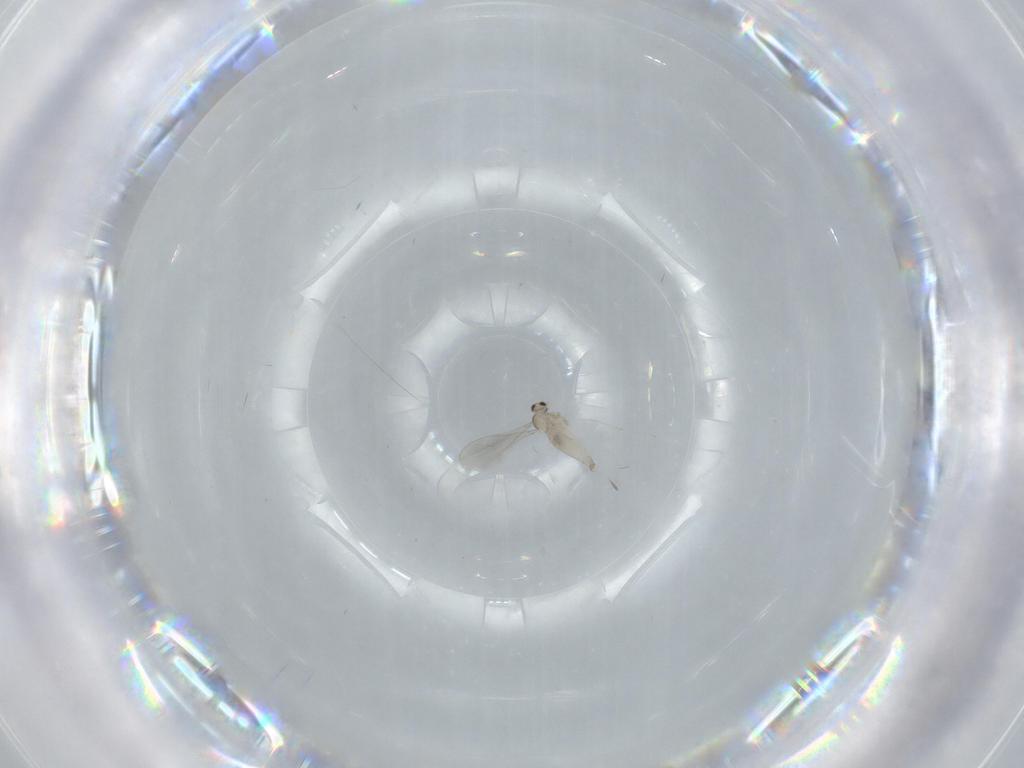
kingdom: Animalia
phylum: Arthropoda
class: Insecta
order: Diptera
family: Cecidomyiidae
